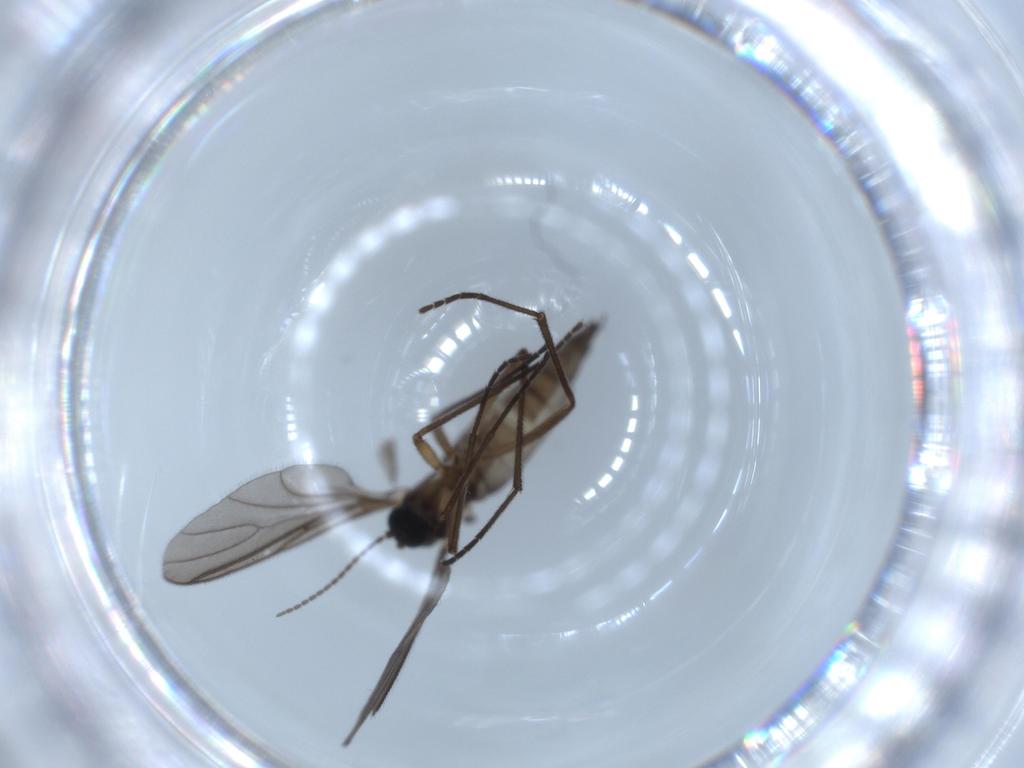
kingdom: Animalia
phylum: Arthropoda
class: Insecta
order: Diptera
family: Sciaridae
